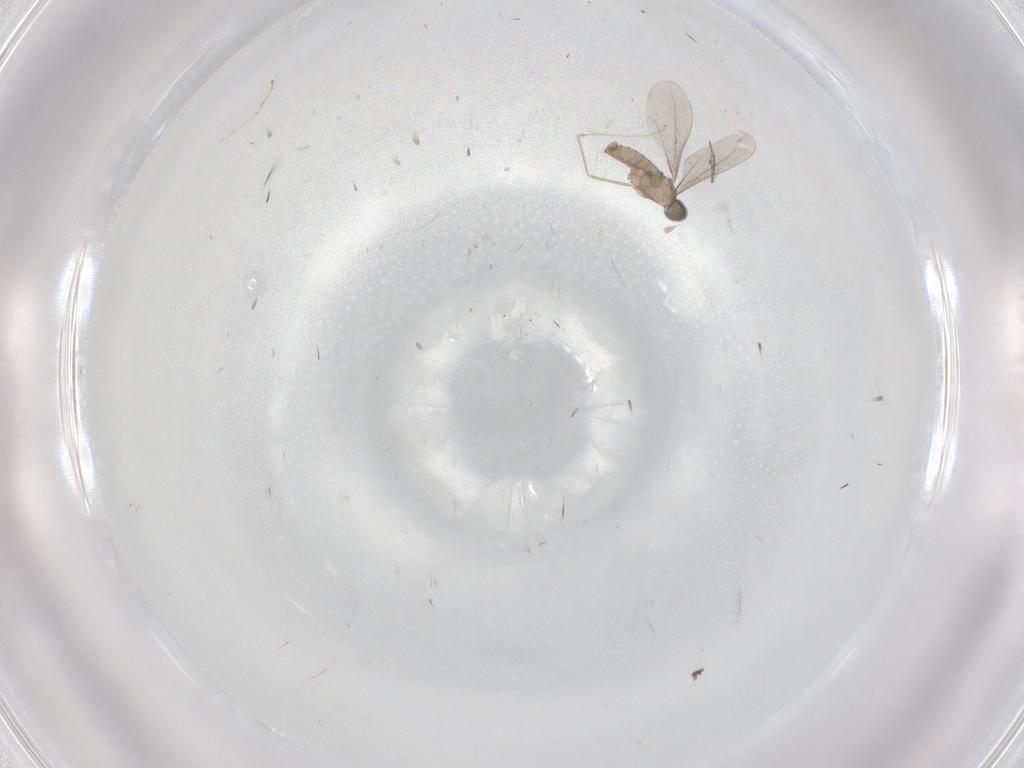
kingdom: Animalia
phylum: Arthropoda
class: Insecta
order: Diptera
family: Cecidomyiidae
